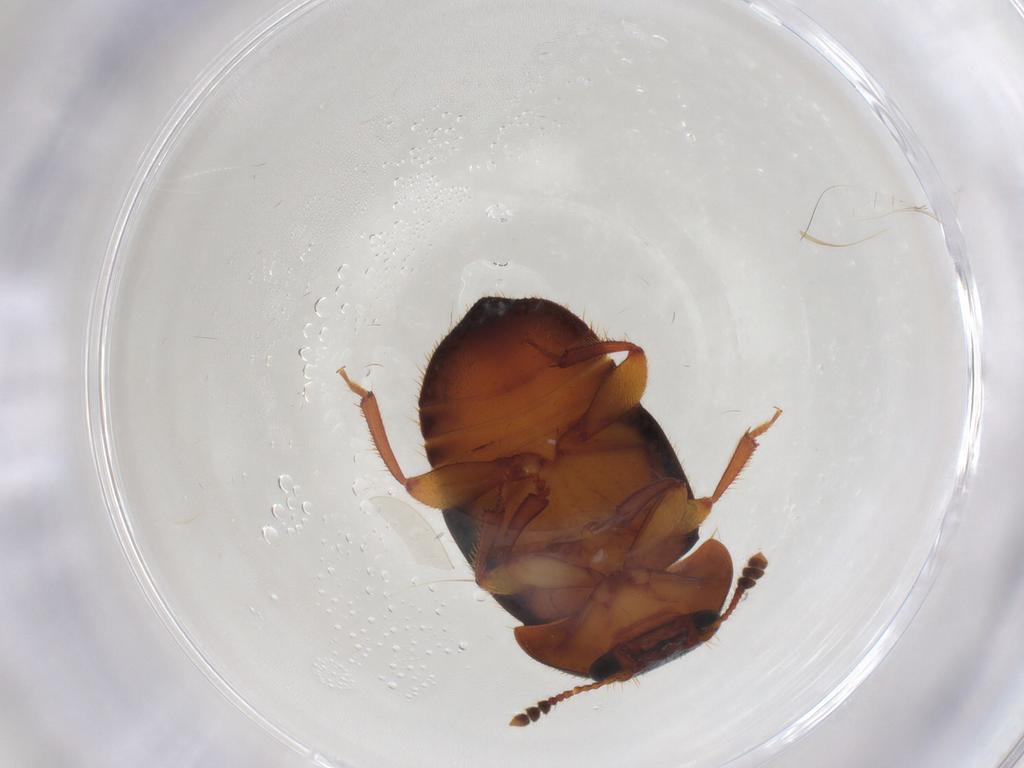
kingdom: Animalia
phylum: Arthropoda
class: Insecta
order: Coleoptera
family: Nitidulidae
